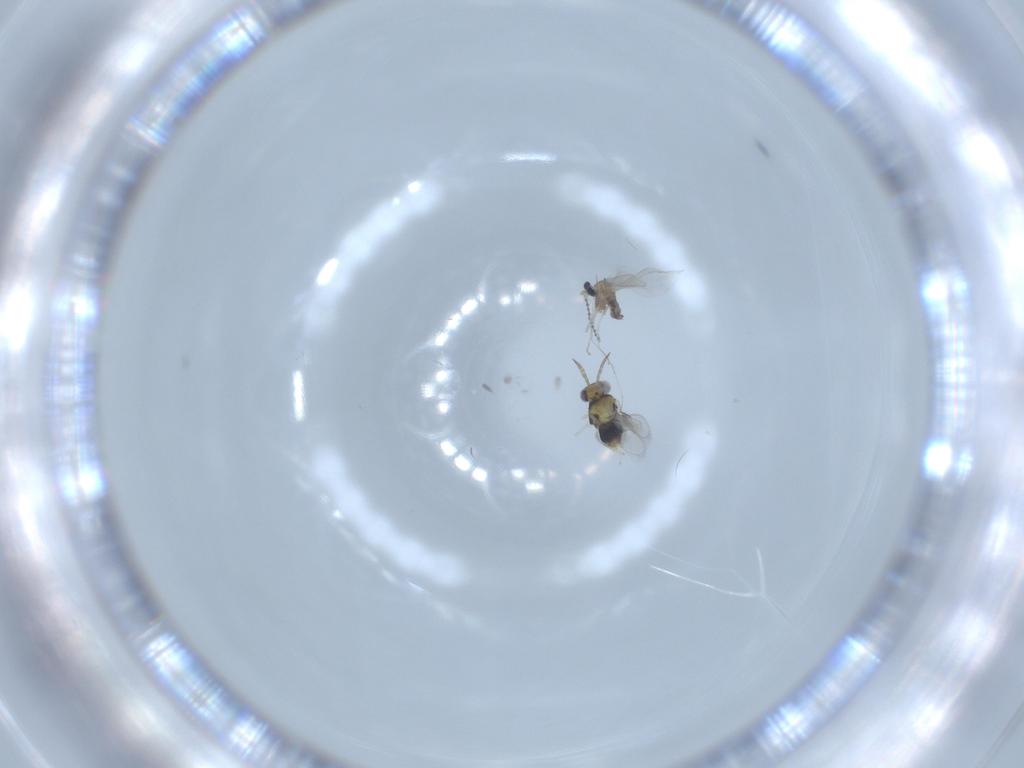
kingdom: Animalia
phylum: Arthropoda
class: Insecta
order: Hymenoptera
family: Aphelinidae
